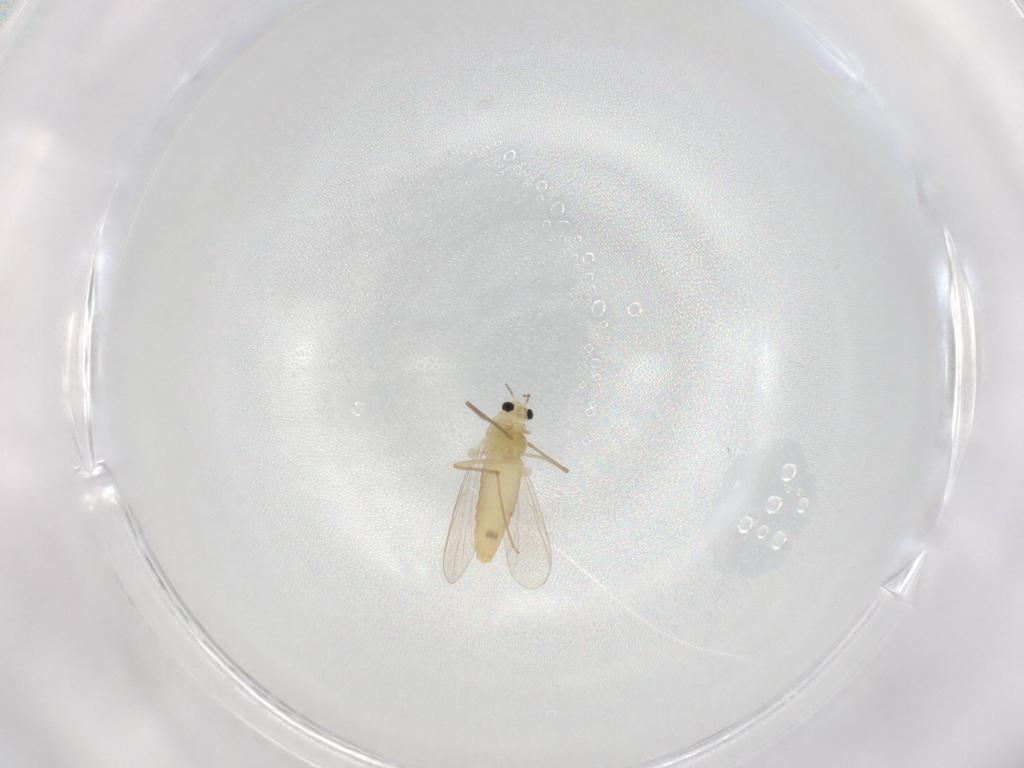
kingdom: Animalia
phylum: Arthropoda
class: Insecta
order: Diptera
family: Chironomidae
